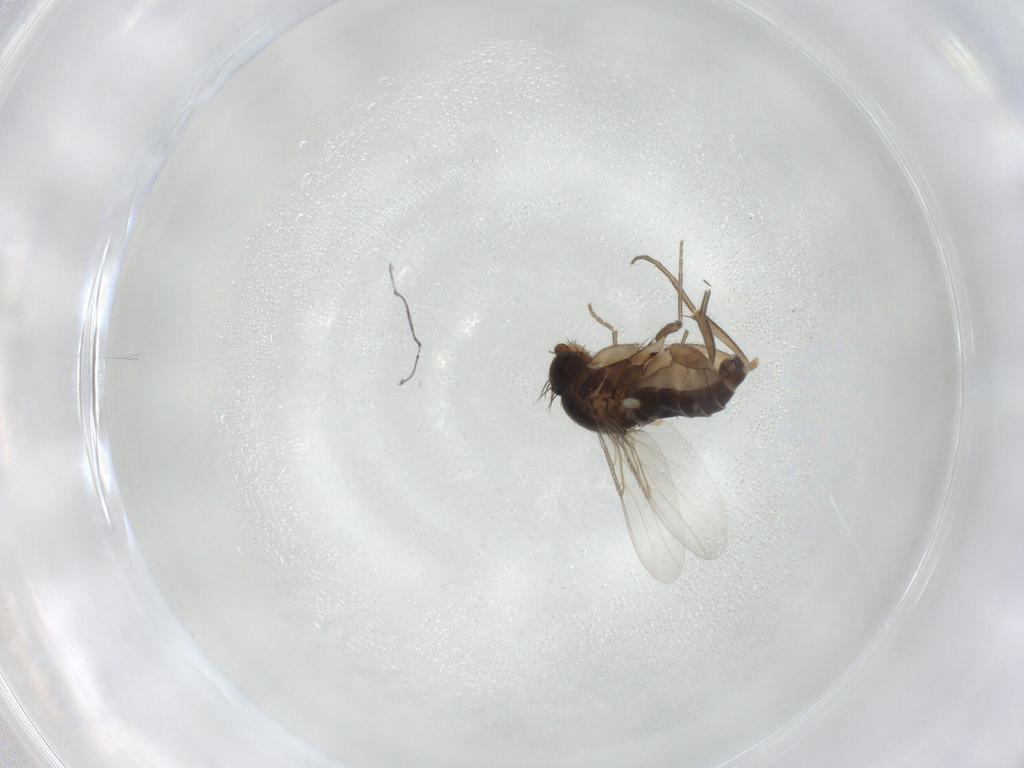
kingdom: Animalia
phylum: Arthropoda
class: Insecta
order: Diptera
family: Phoridae
